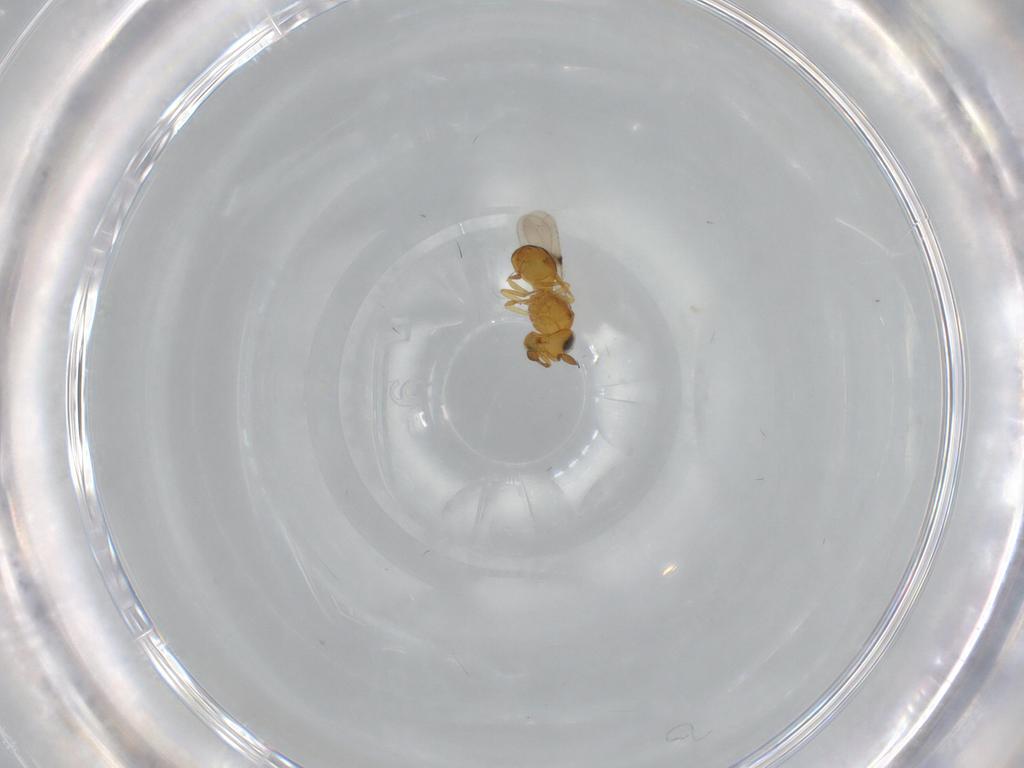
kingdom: Animalia
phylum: Arthropoda
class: Insecta
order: Hymenoptera
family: Scelionidae
